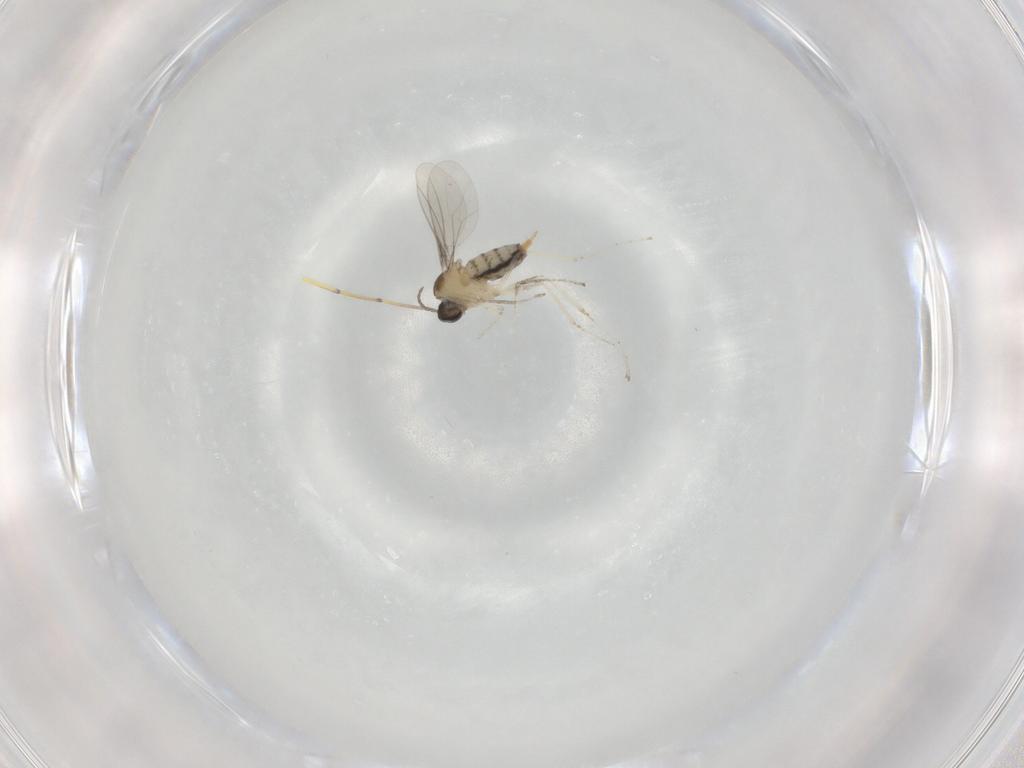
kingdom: Animalia
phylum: Arthropoda
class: Insecta
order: Diptera
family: Cecidomyiidae
